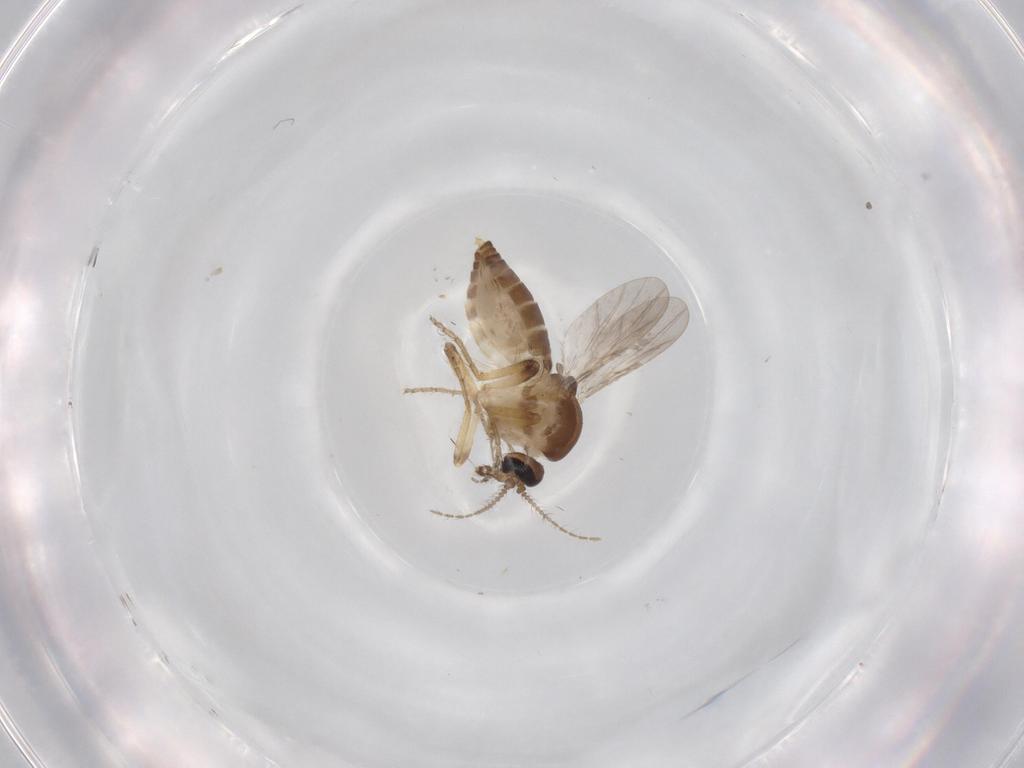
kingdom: Animalia
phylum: Arthropoda
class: Insecta
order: Diptera
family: Ceratopogonidae
